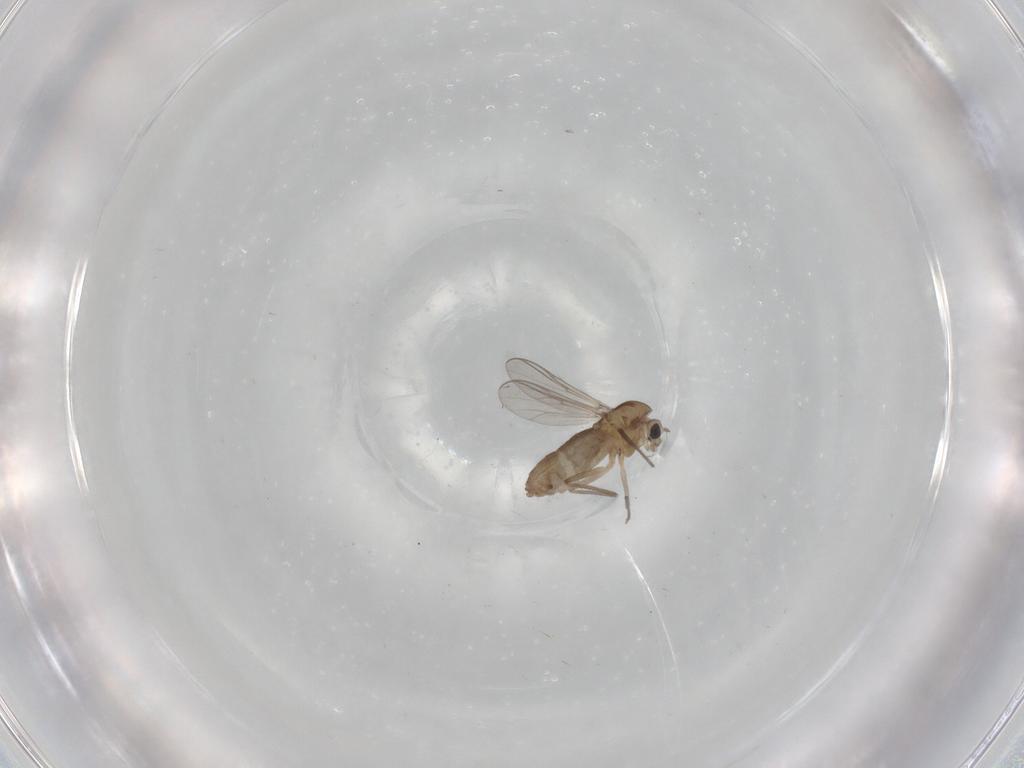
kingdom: Animalia
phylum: Arthropoda
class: Insecta
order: Diptera
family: Chironomidae
